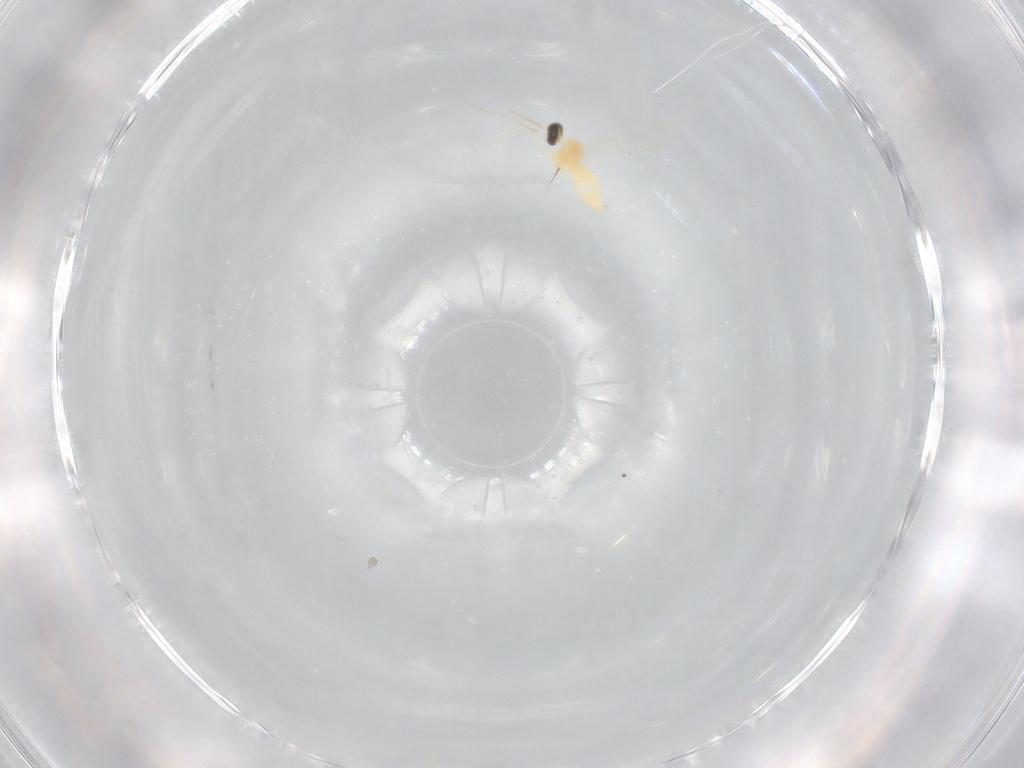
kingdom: Animalia
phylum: Arthropoda
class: Insecta
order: Diptera
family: Cecidomyiidae
